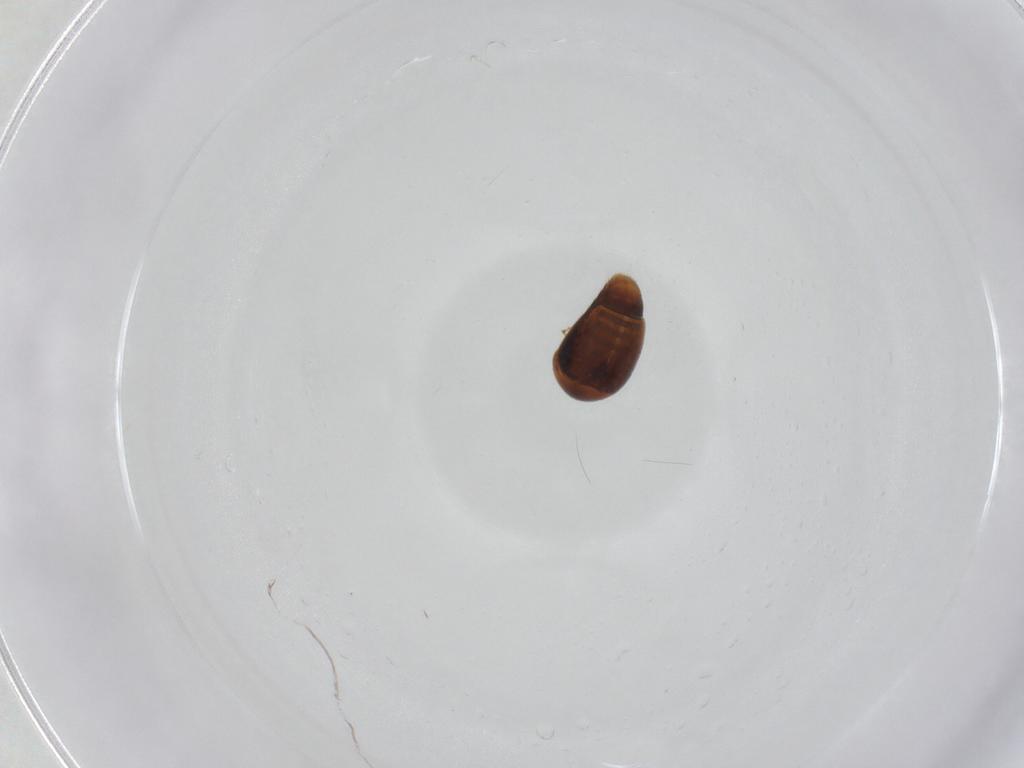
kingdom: Animalia
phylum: Arthropoda
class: Insecta
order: Coleoptera
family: Corylophidae
